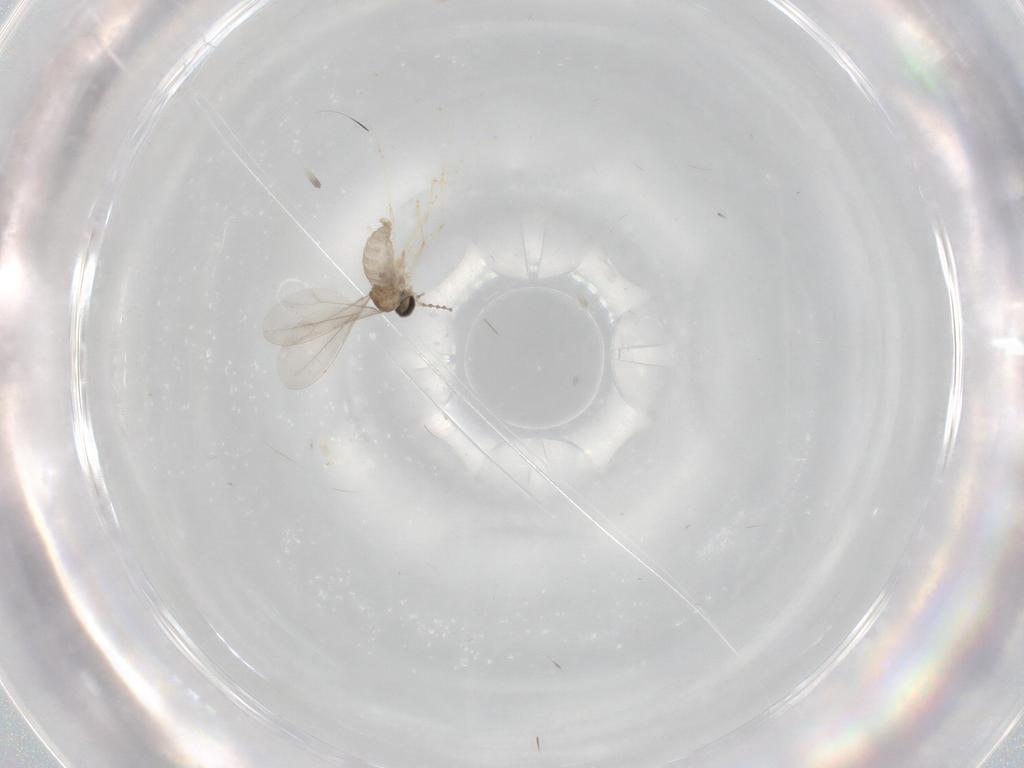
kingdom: Animalia
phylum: Arthropoda
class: Insecta
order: Diptera
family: Cecidomyiidae
